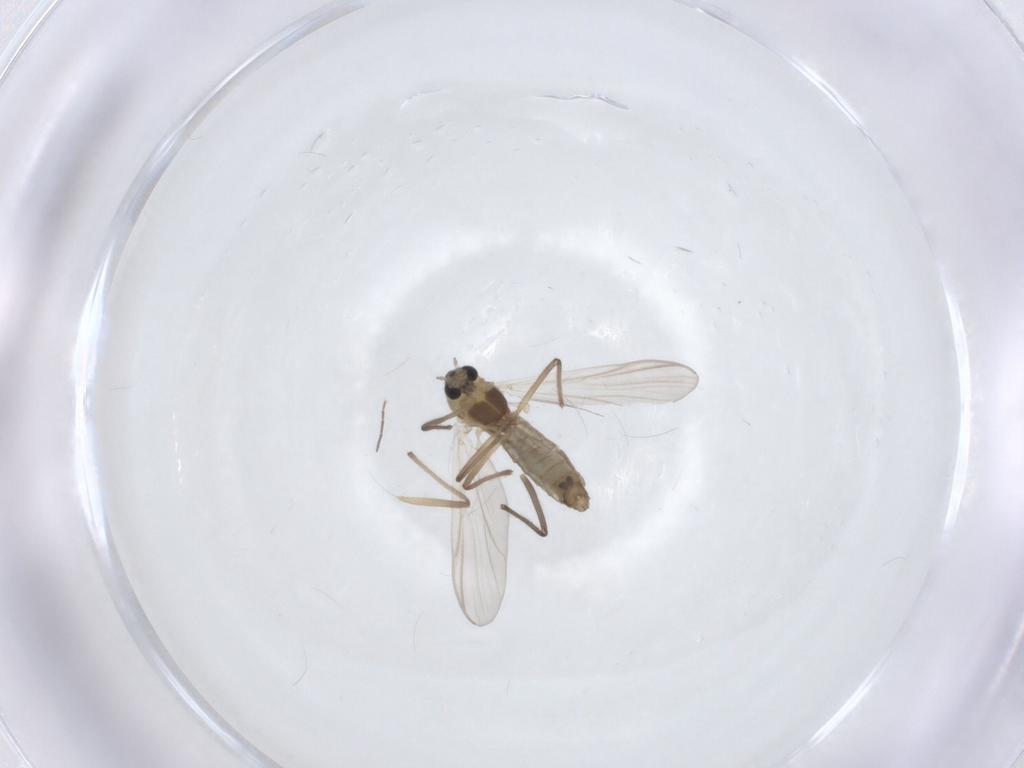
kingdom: Animalia
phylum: Arthropoda
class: Insecta
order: Diptera
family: Chironomidae
